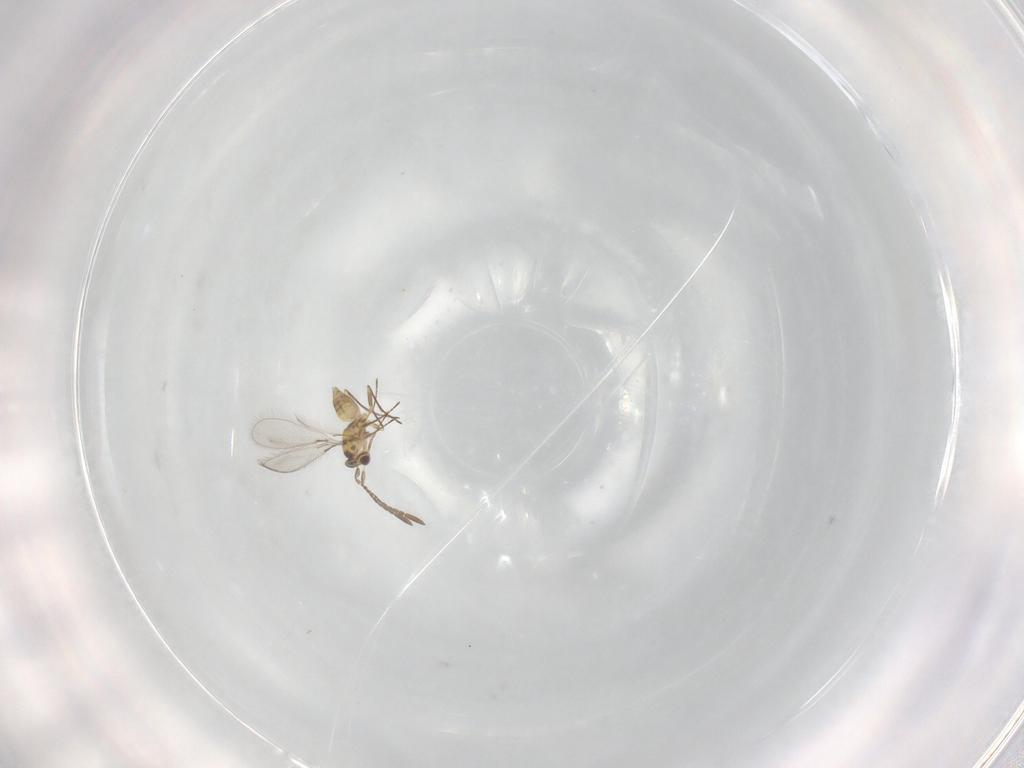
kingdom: Animalia
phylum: Arthropoda
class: Insecta
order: Hymenoptera
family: Mymaridae
